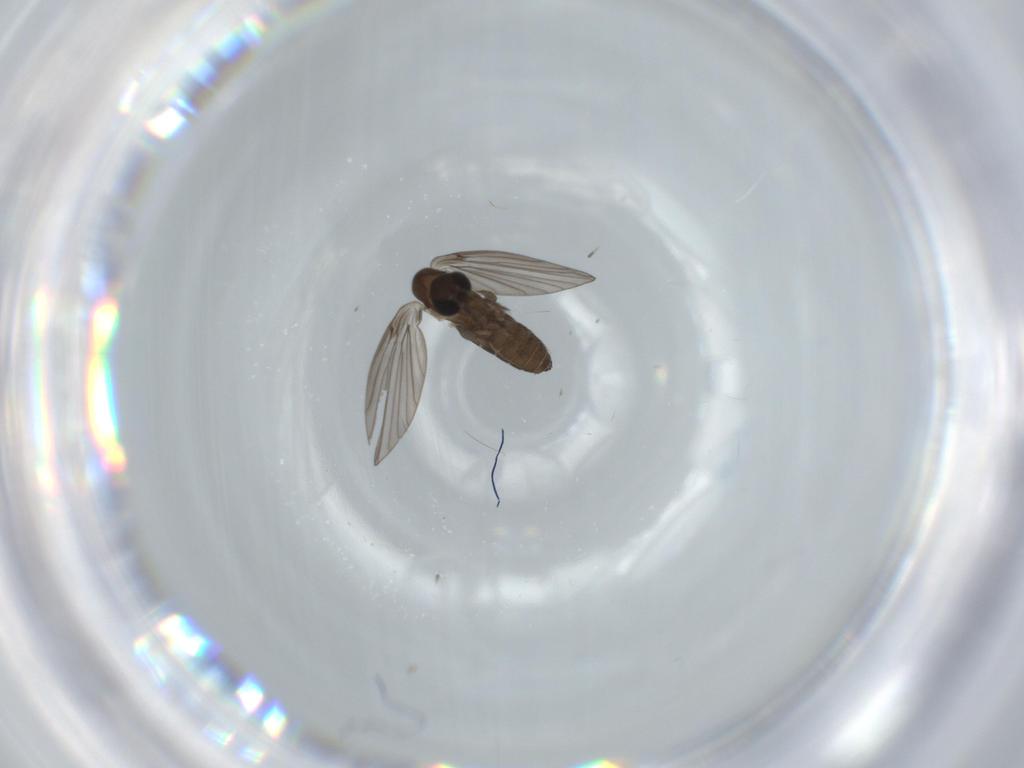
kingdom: Animalia
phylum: Arthropoda
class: Insecta
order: Diptera
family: Psychodidae
